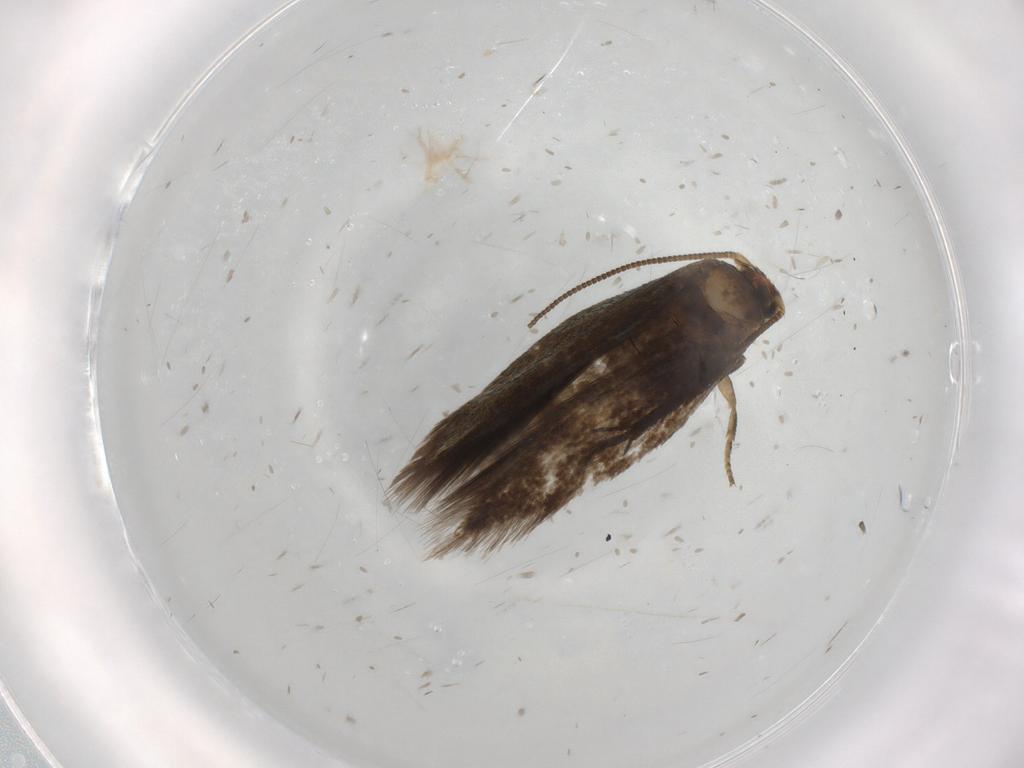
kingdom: Animalia
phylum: Arthropoda
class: Insecta
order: Lepidoptera
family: Nepticulidae
